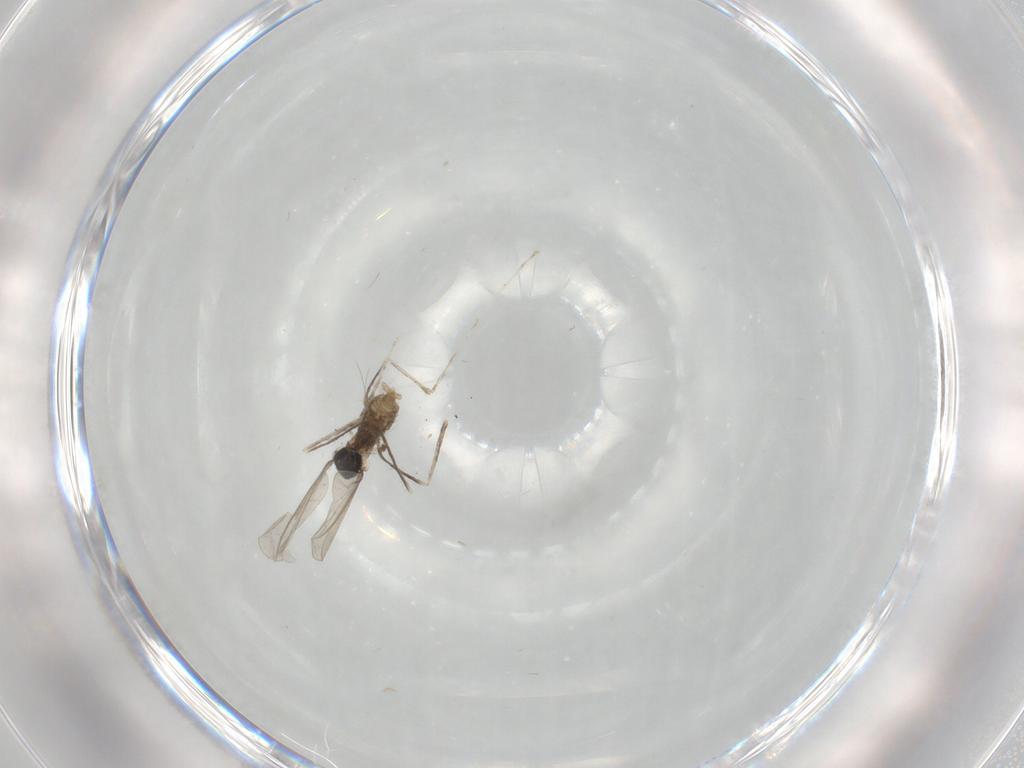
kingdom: Animalia
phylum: Arthropoda
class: Insecta
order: Diptera
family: Cecidomyiidae
